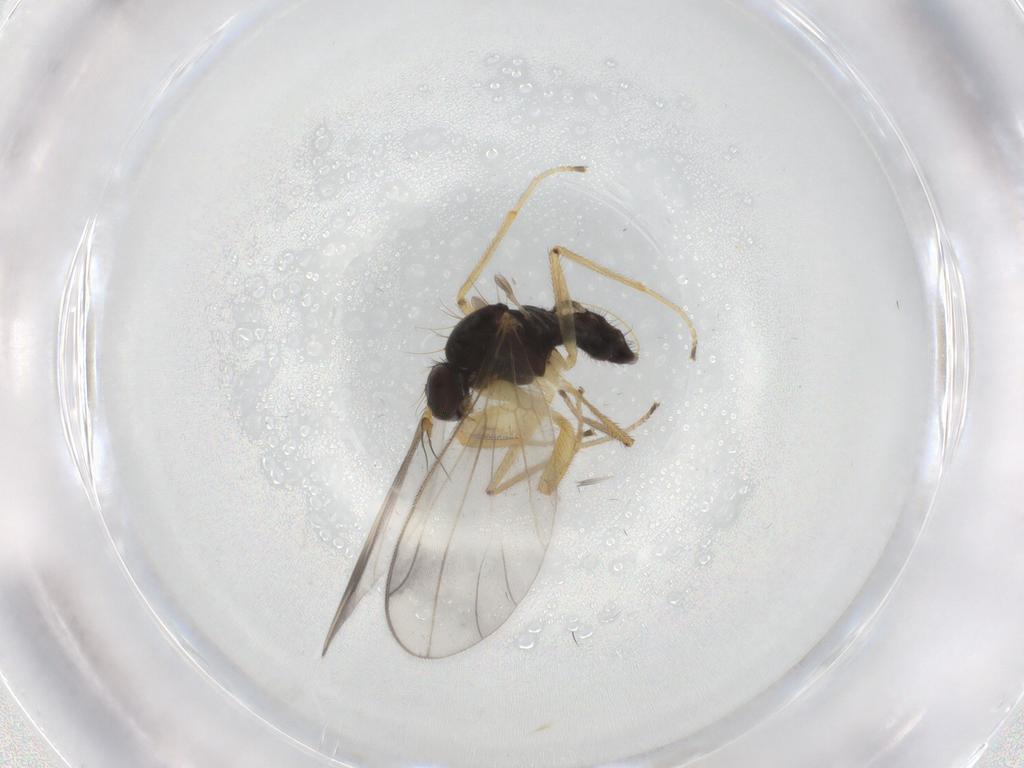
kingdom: Animalia
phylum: Arthropoda
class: Insecta
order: Diptera
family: Cecidomyiidae
